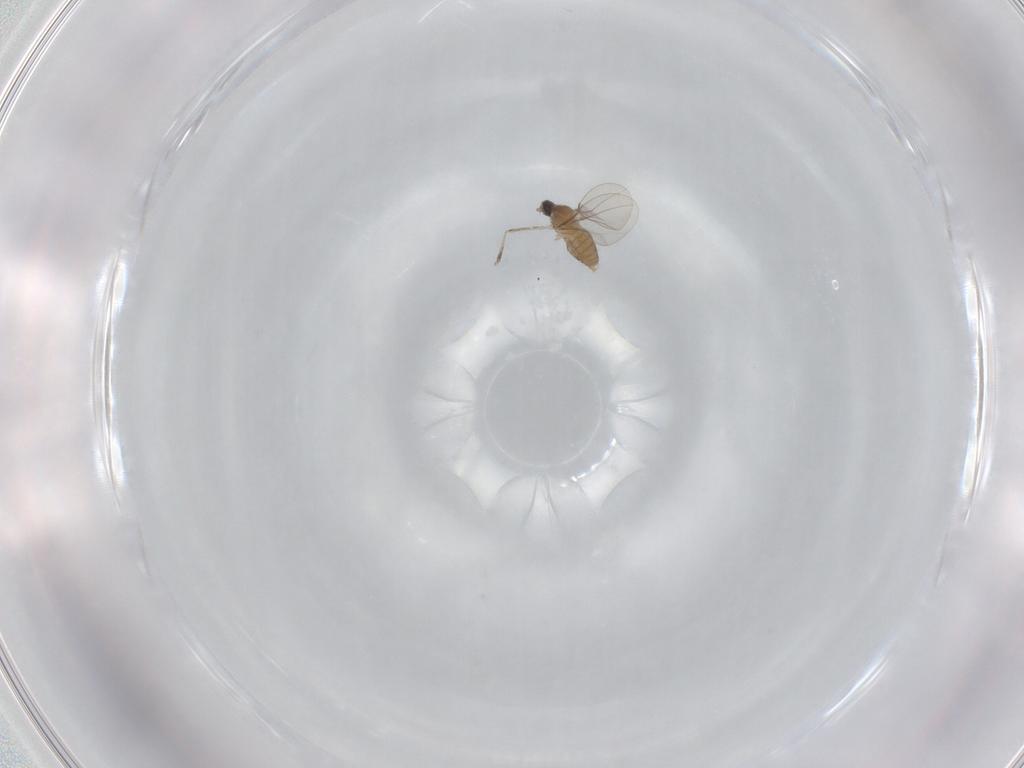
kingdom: Animalia
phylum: Arthropoda
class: Insecta
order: Diptera
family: Cecidomyiidae
